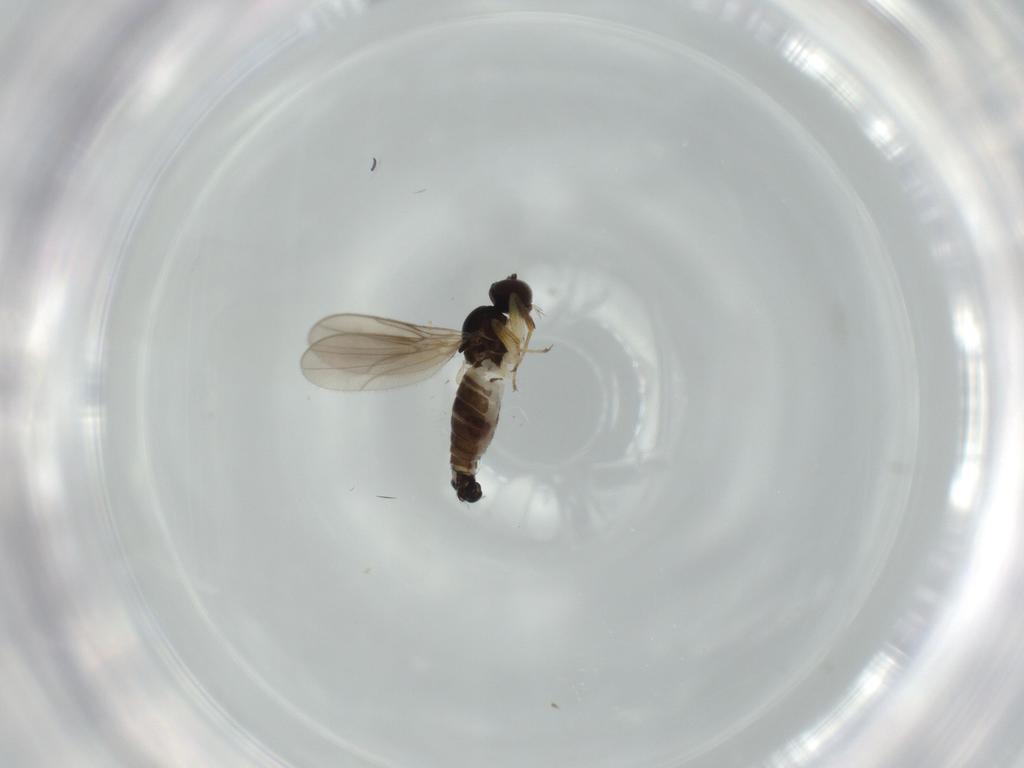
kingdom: Animalia
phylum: Arthropoda
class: Insecta
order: Diptera
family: Hybotidae
